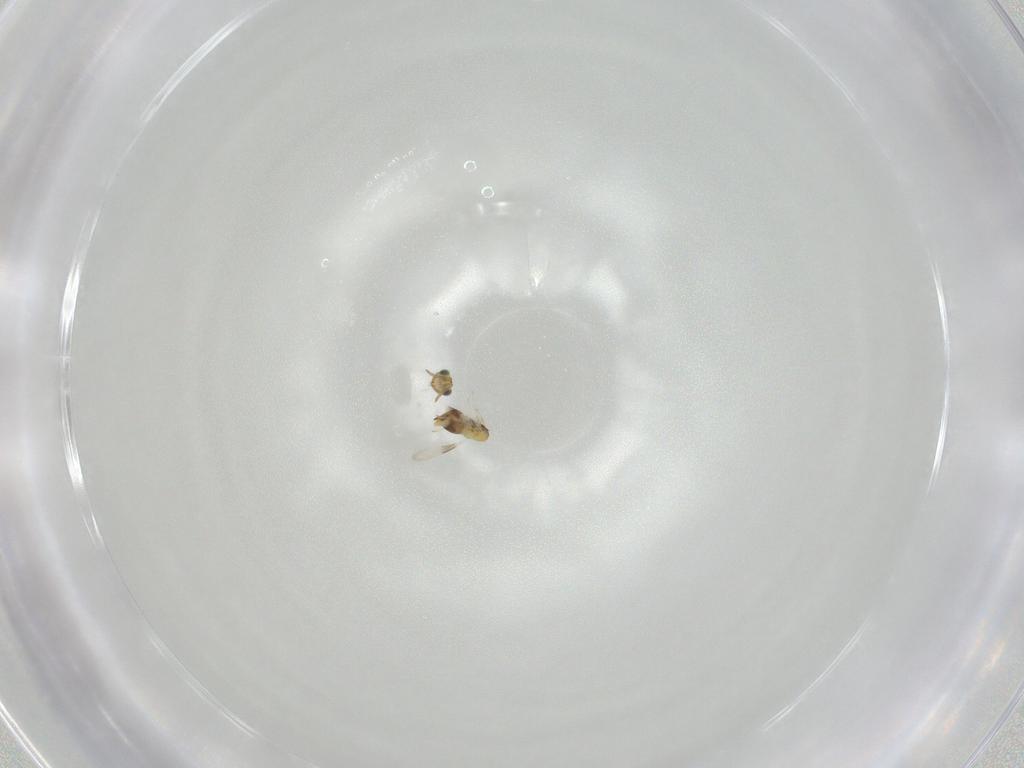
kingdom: Animalia
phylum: Arthropoda
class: Insecta
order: Hymenoptera
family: Aphelinidae
